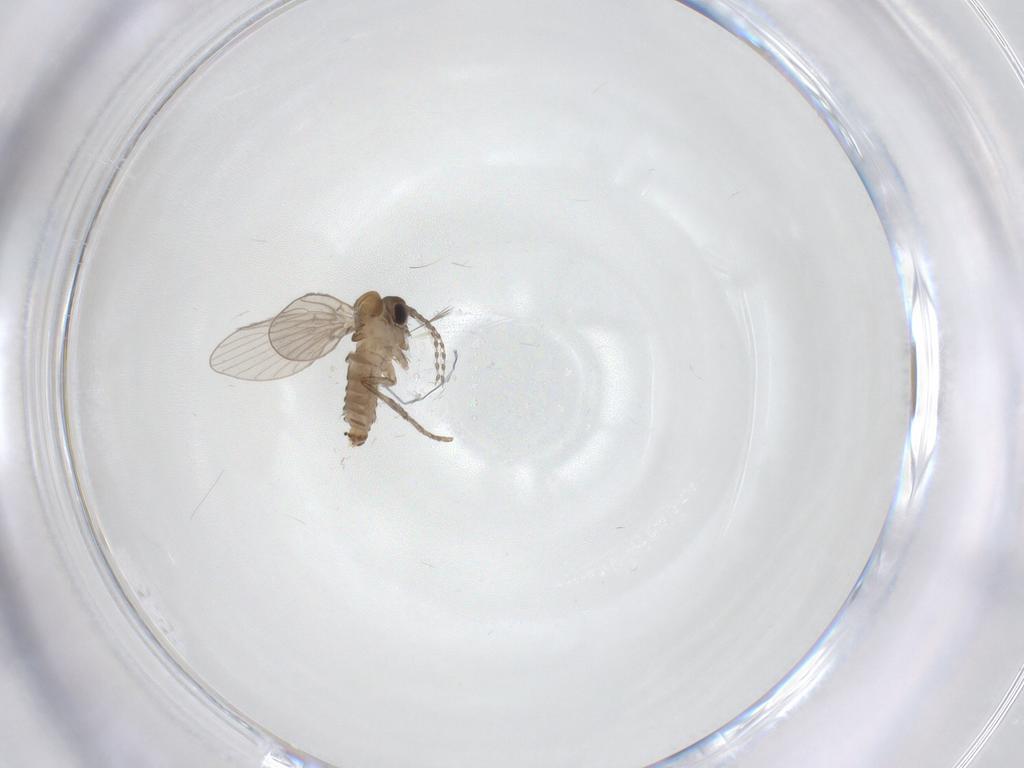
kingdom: Animalia
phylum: Arthropoda
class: Insecta
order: Diptera
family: Psychodidae
